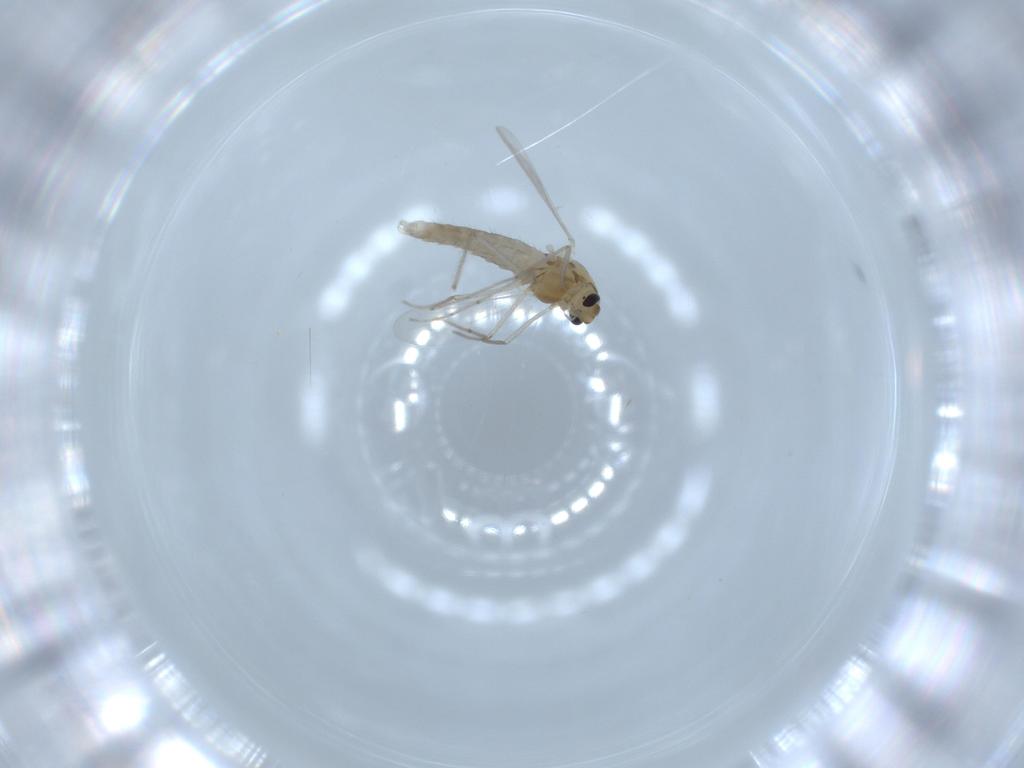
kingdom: Animalia
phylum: Arthropoda
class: Insecta
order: Diptera
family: Chironomidae
